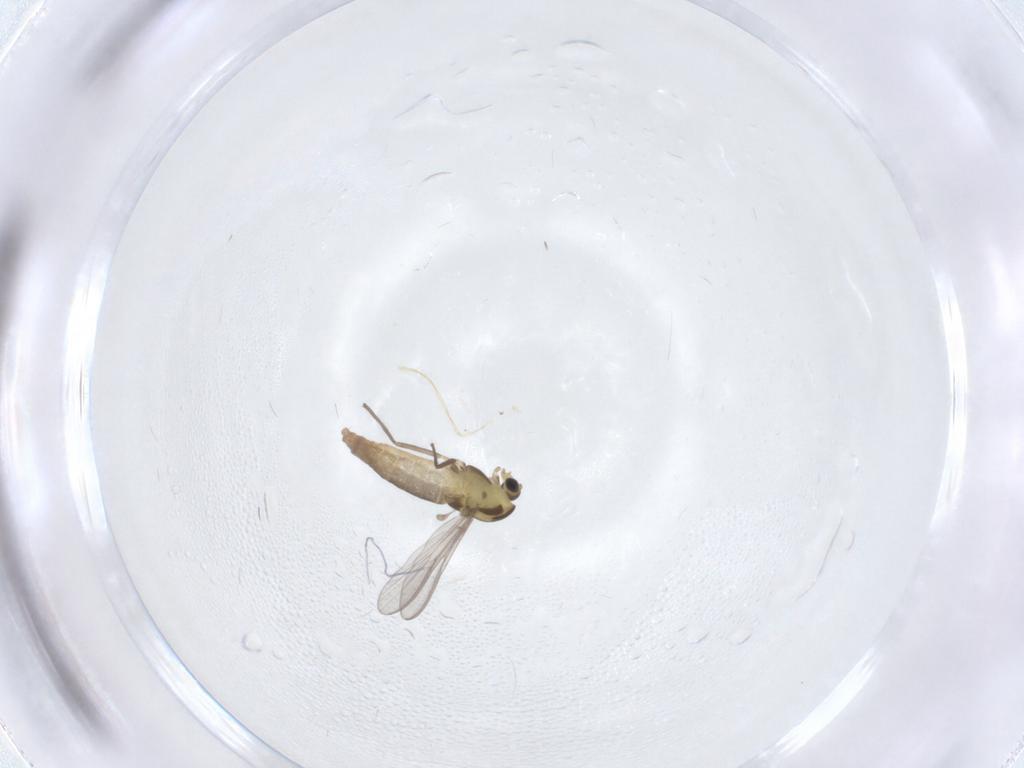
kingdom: Animalia
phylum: Arthropoda
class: Insecta
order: Diptera
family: Chironomidae
